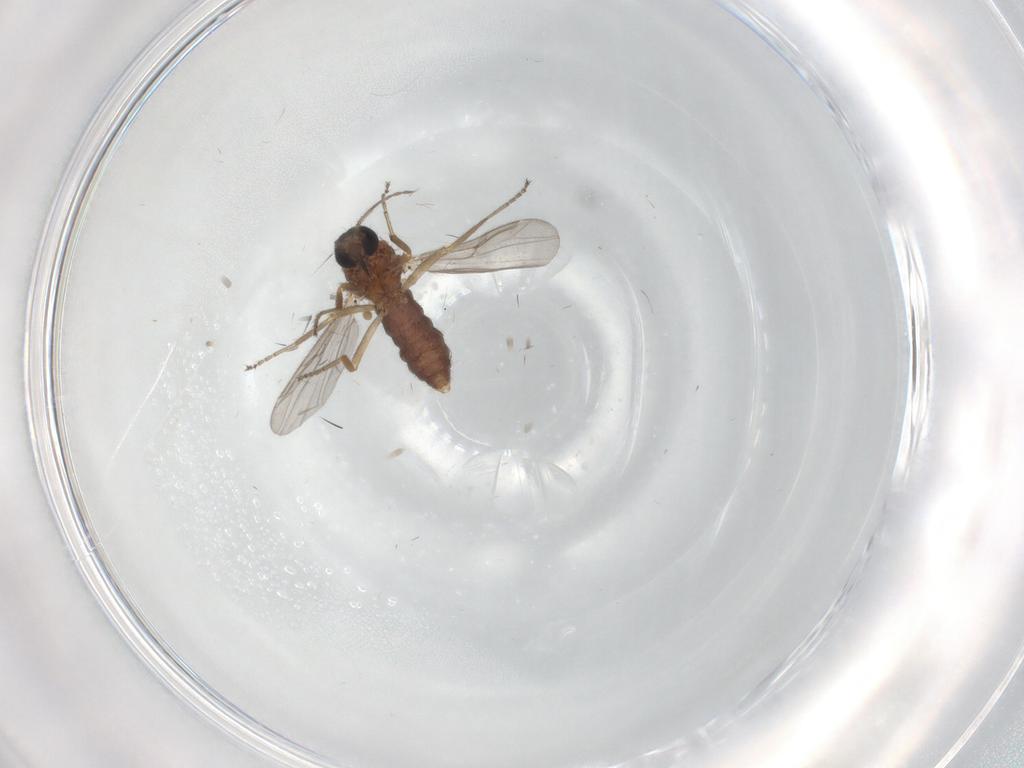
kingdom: Animalia
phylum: Arthropoda
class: Insecta
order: Diptera
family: Ceratopogonidae
